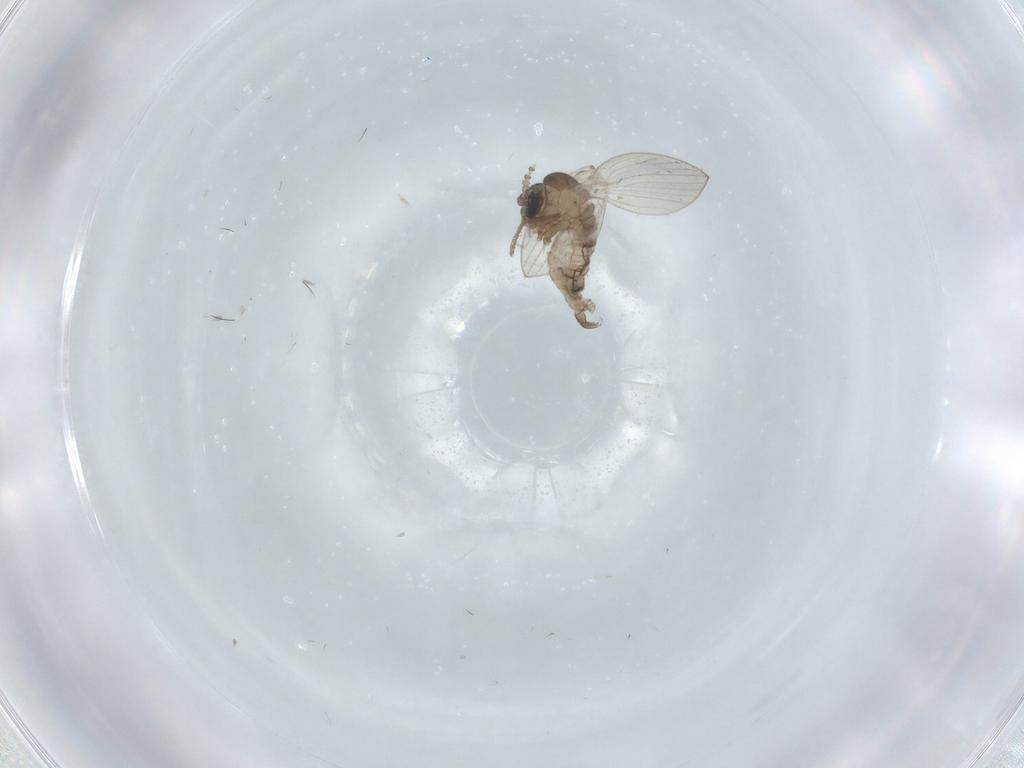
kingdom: Animalia
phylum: Arthropoda
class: Insecta
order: Diptera
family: Psychodidae
